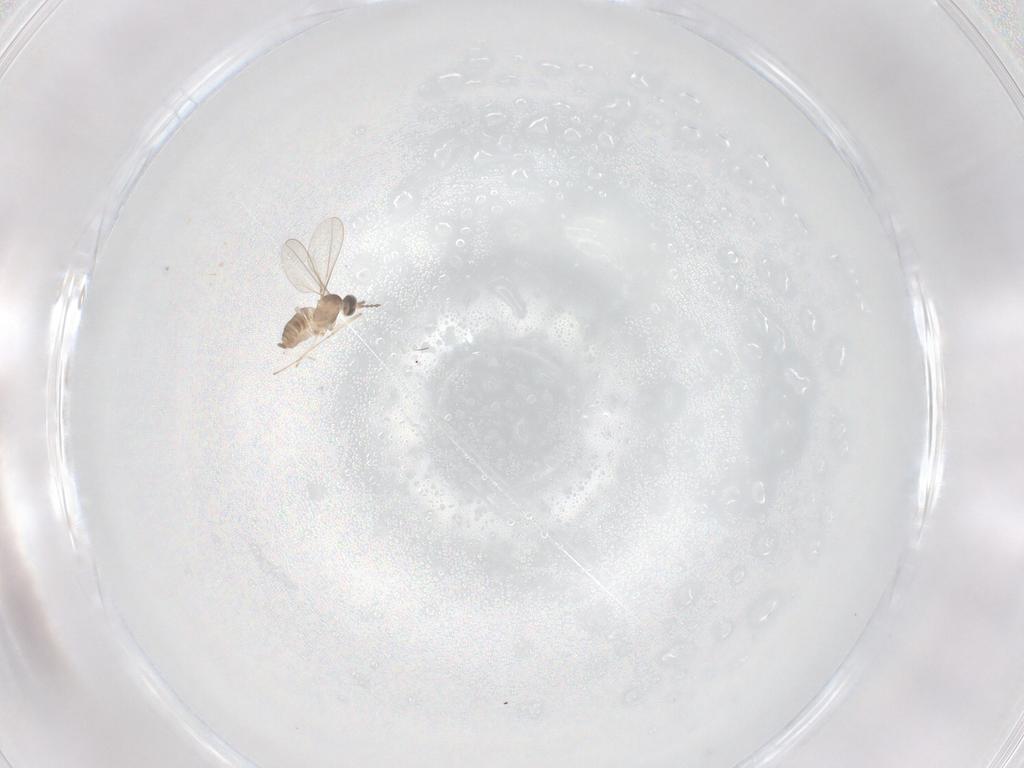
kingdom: Animalia
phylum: Arthropoda
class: Insecta
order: Diptera
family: Cecidomyiidae
